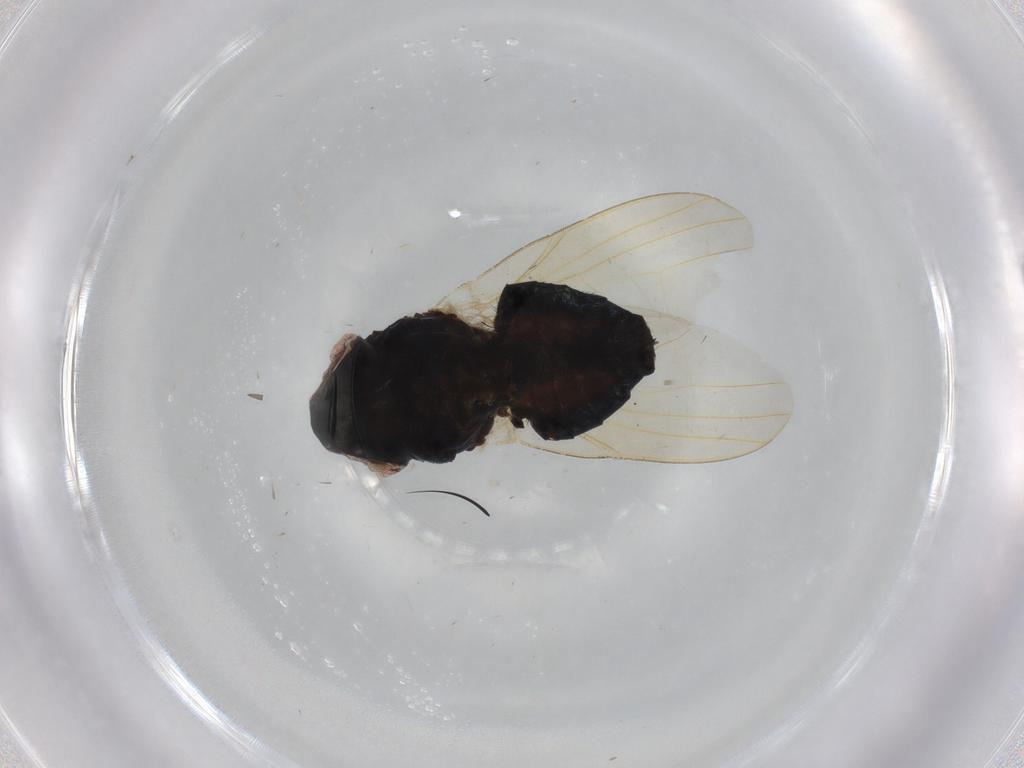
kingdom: Animalia
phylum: Arthropoda
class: Insecta
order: Diptera
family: Tachinidae
